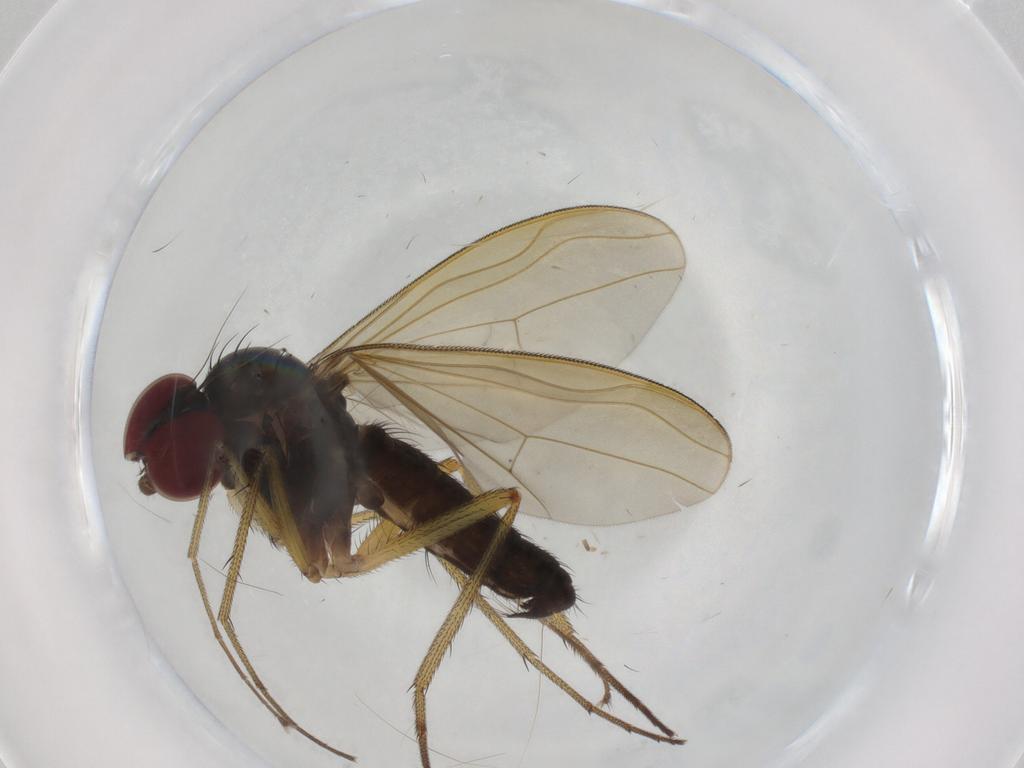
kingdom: Animalia
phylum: Arthropoda
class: Insecta
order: Diptera
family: Dolichopodidae
